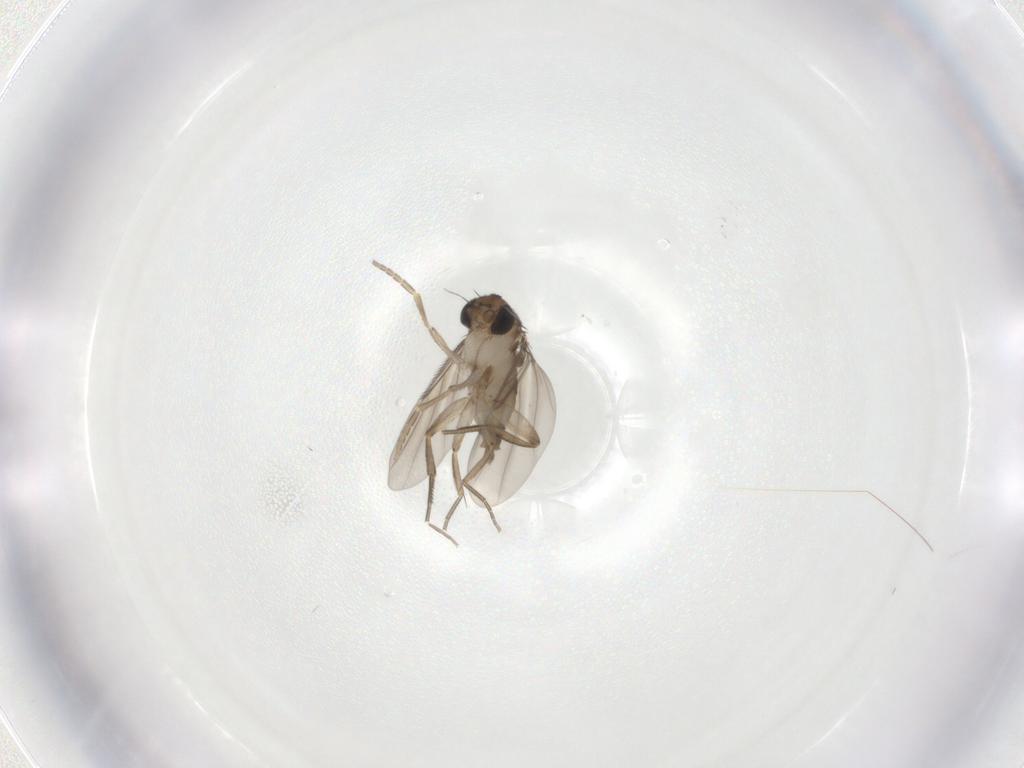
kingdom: Animalia
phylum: Arthropoda
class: Insecta
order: Diptera
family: Phoridae
